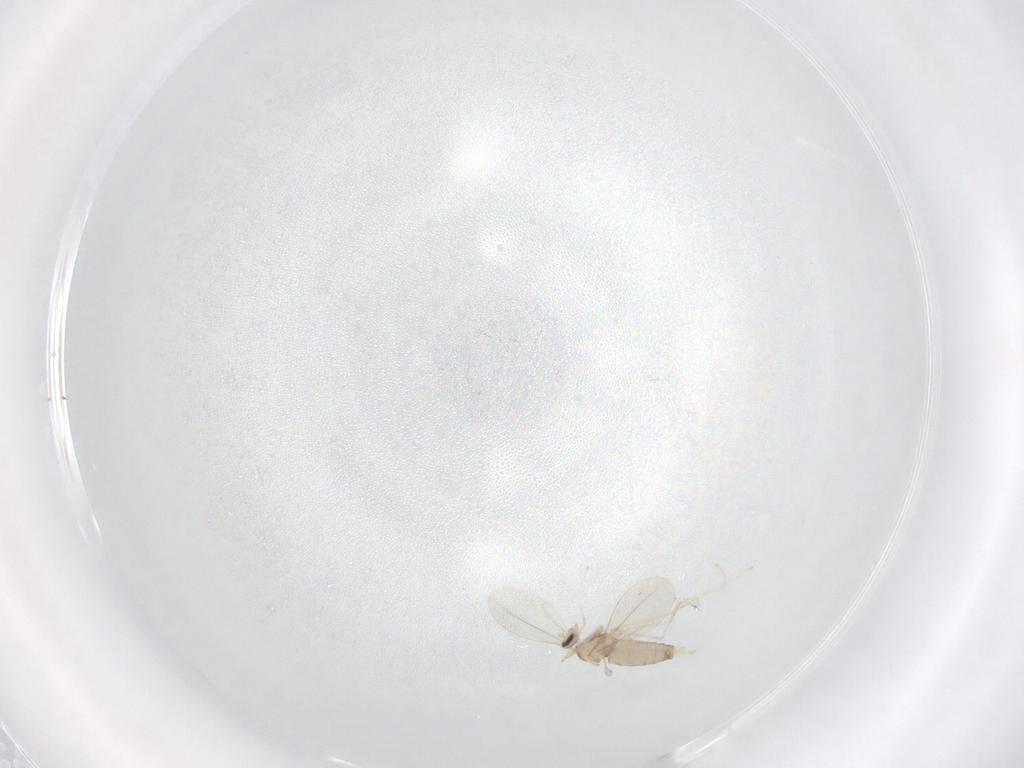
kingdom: Animalia
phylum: Arthropoda
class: Insecta
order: Diptera
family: Cecidomyiidae
